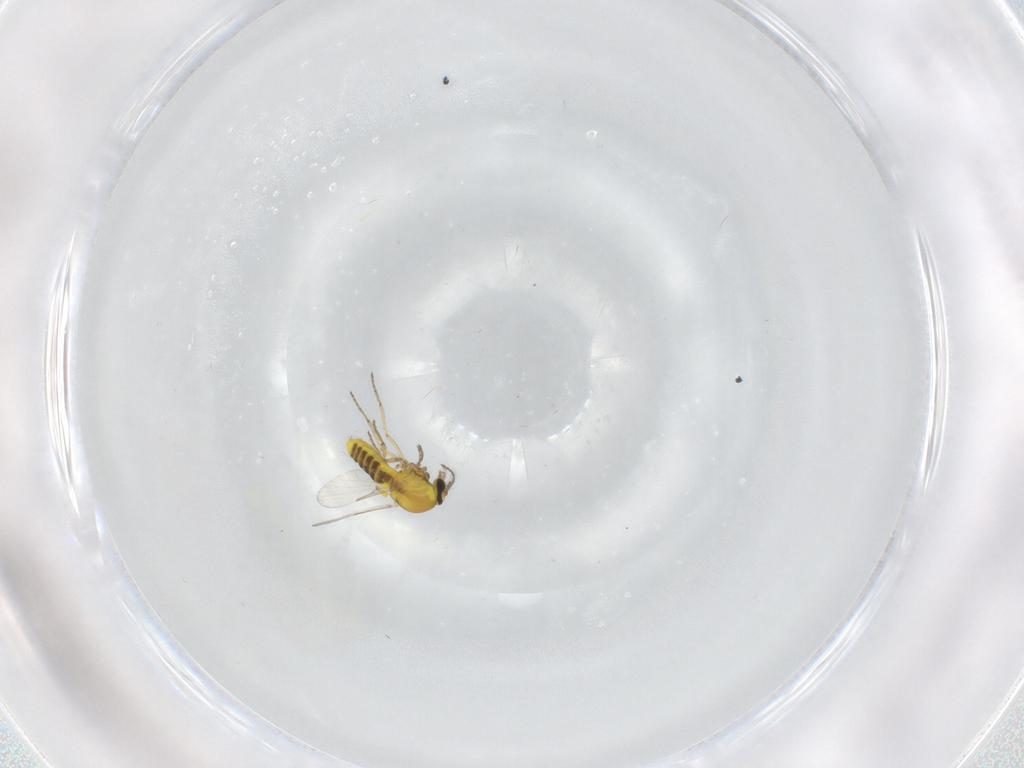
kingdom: Animalia
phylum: Arthropoda
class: Insecta
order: Diptera
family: Ceratopogonidae
